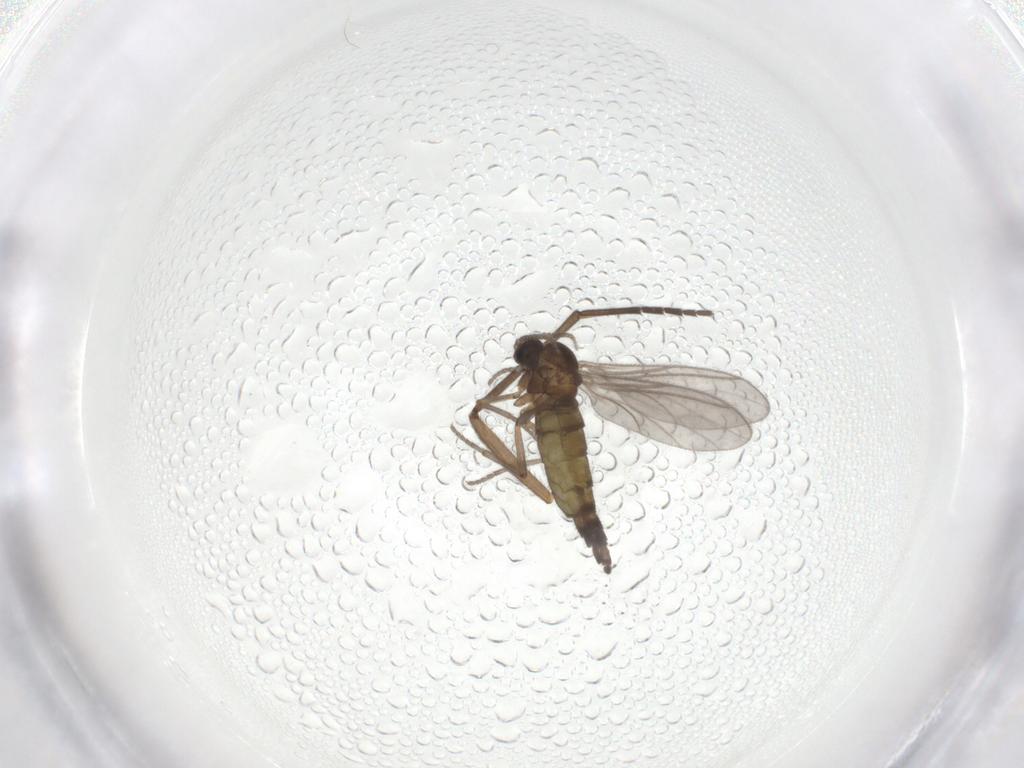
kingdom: Animalia
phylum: Arthropoda
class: Insecta
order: Diptera
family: Sciaridae
